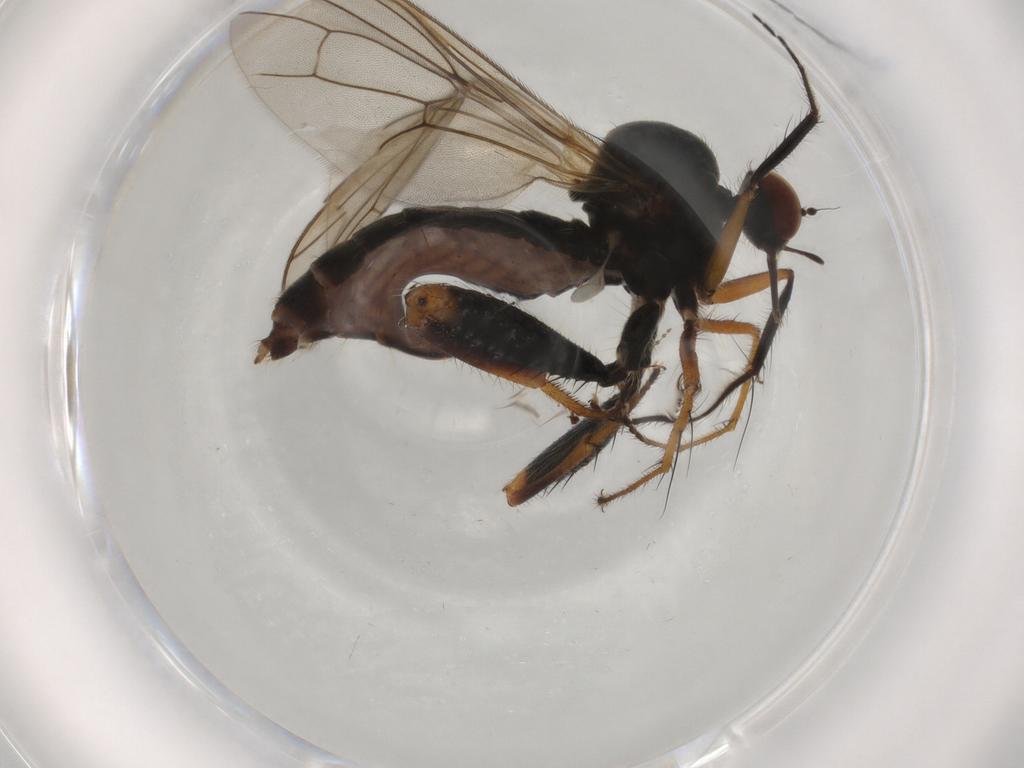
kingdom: Animalia
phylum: Arthropoda
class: Insecta
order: Diptera
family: Hybotidae
